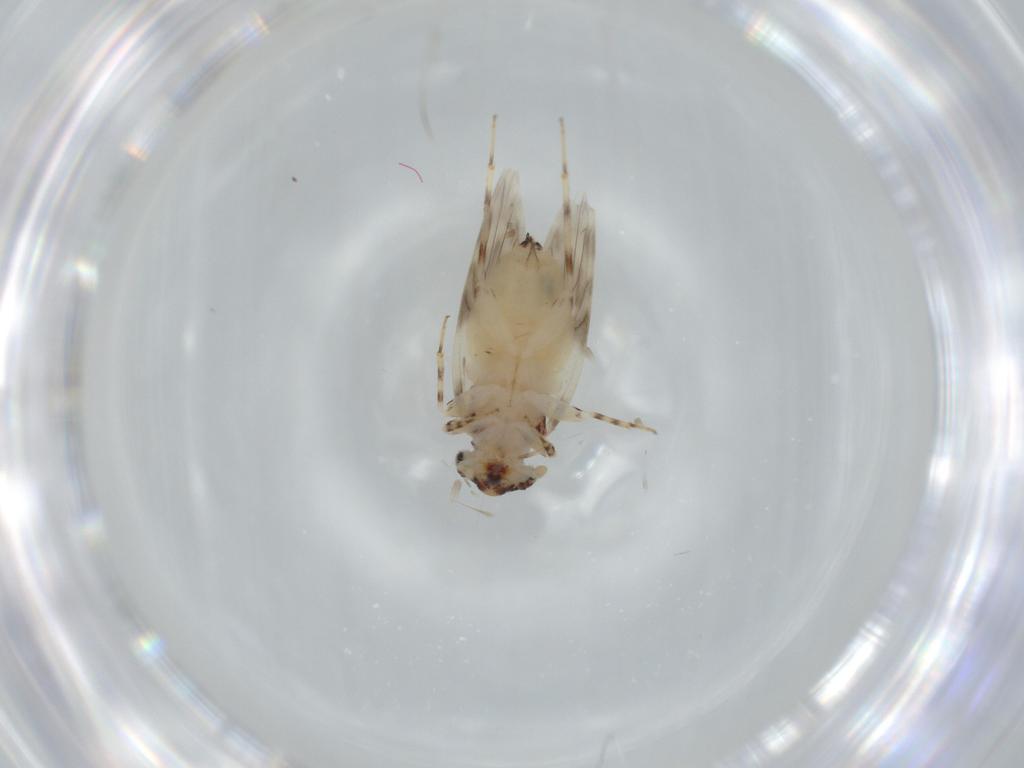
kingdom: Animalia
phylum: Arthropoda
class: Insecta
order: Psocodea
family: Lepidopsocidae
